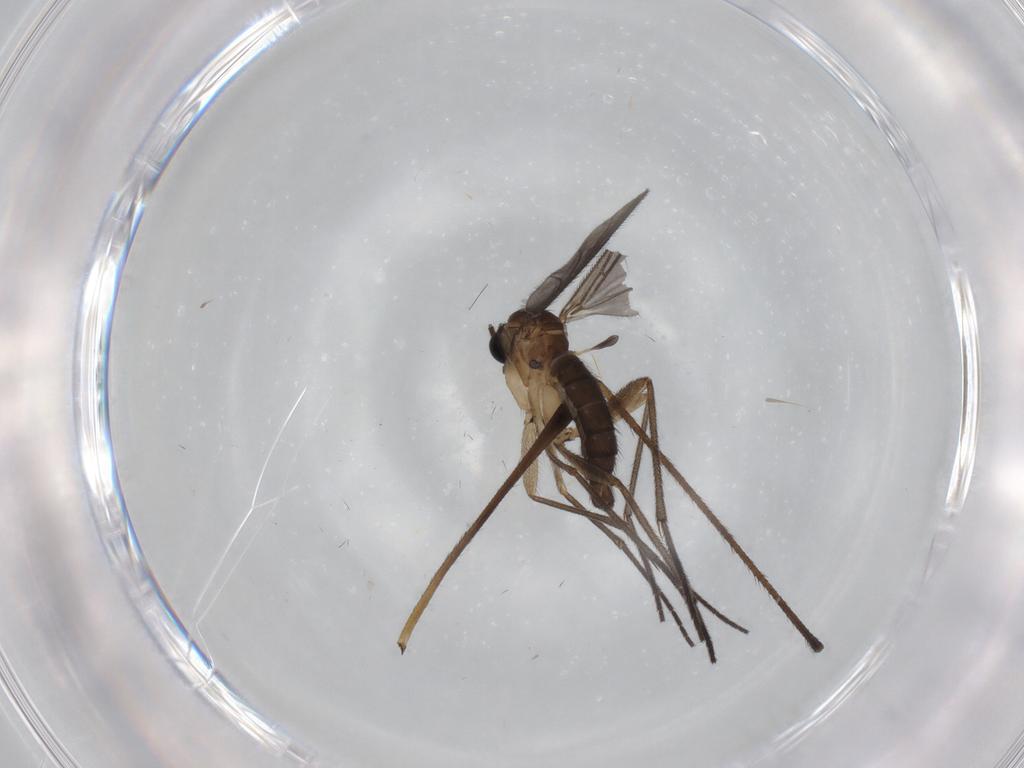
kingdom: Animalia
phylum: Arthropoda
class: Insecta
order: Diptera
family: Limoniidae
